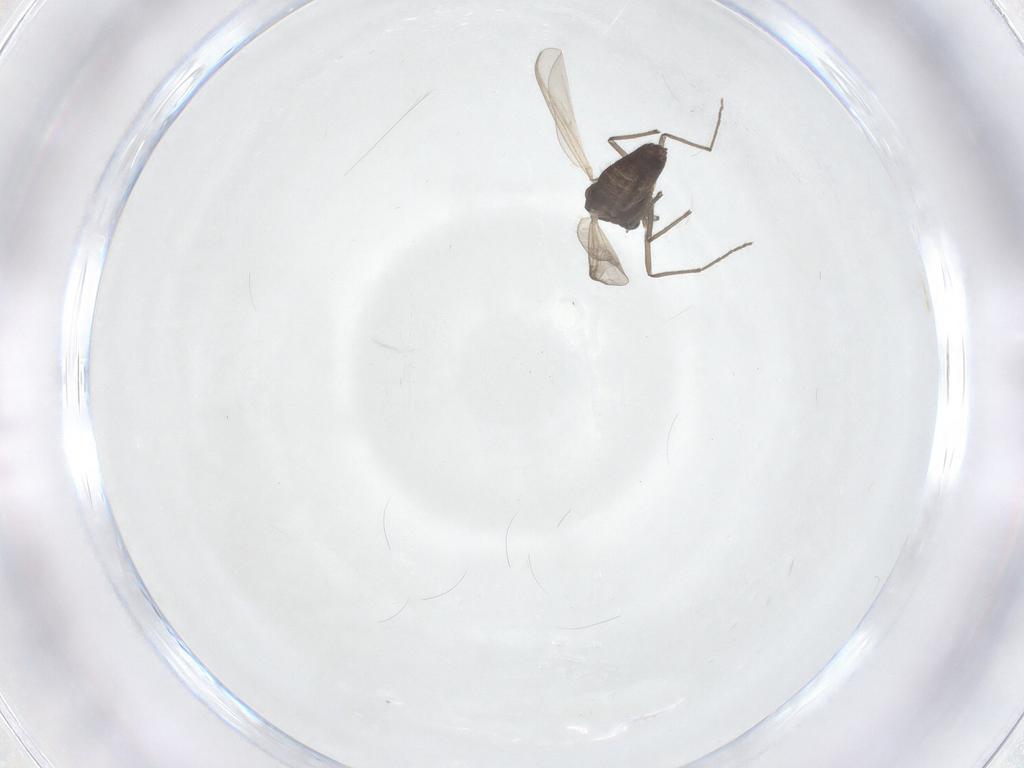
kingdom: Animalia
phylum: Arthropoda
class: Insecta
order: Diptera
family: Chironomidae
